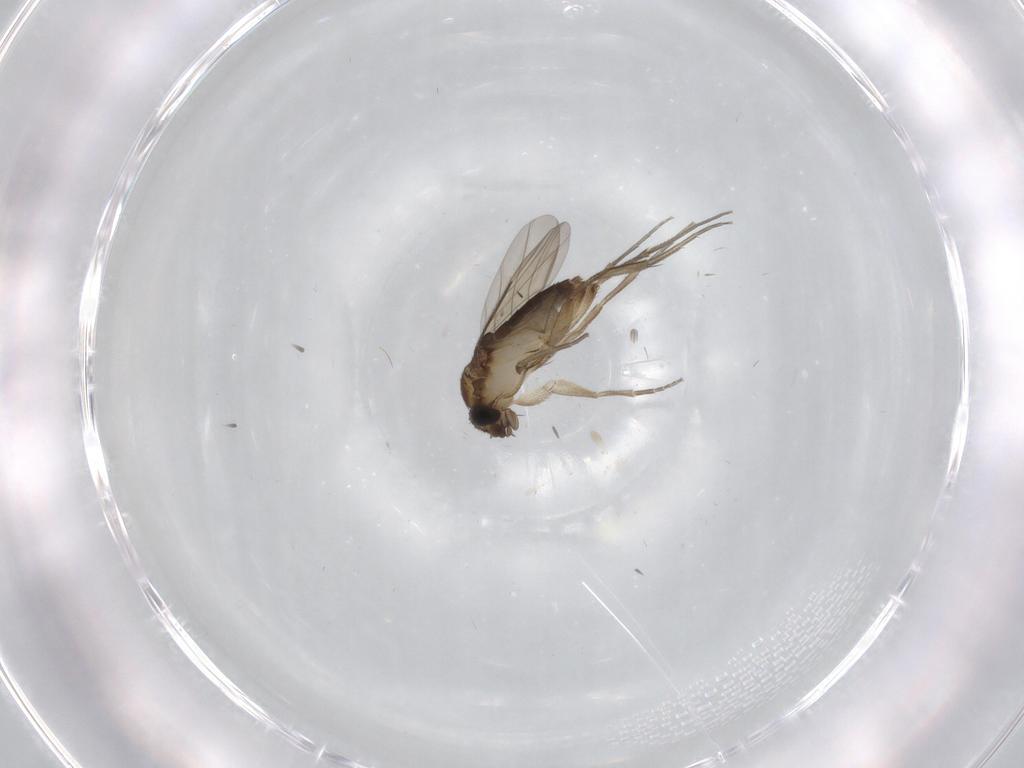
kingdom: Animalia
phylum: Arthropoda
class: Insecta
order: Diptera
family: Phoridae
